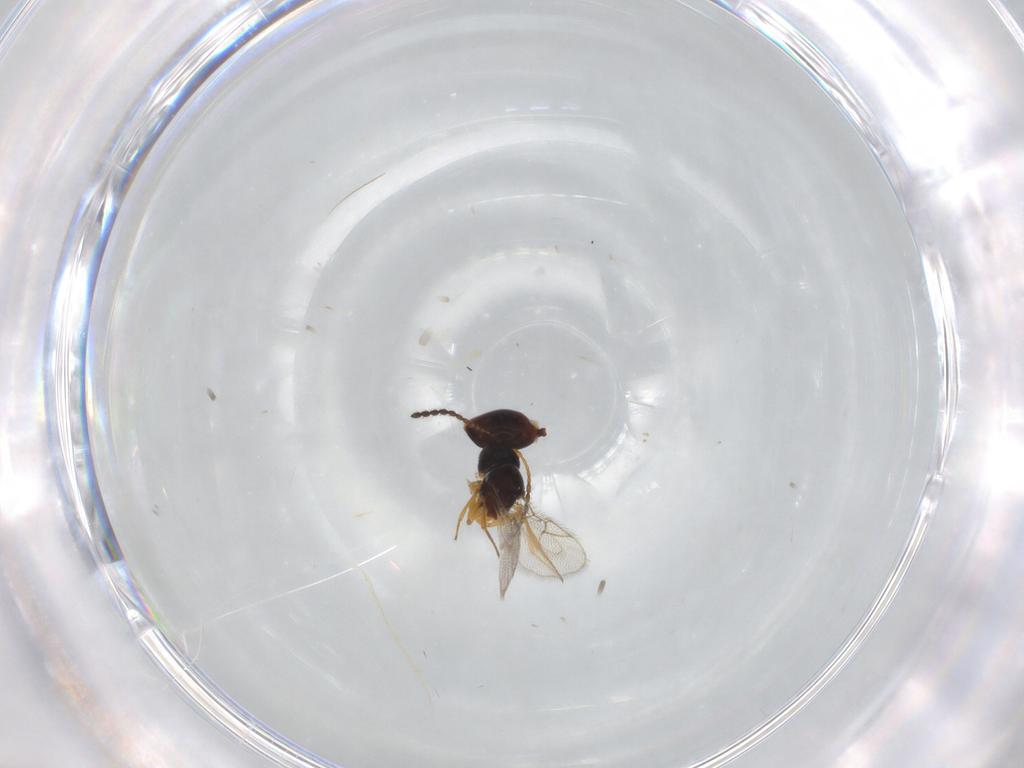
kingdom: Animalia
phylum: Arthropoda
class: Insecta
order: Hymenoptera
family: Figitidae
